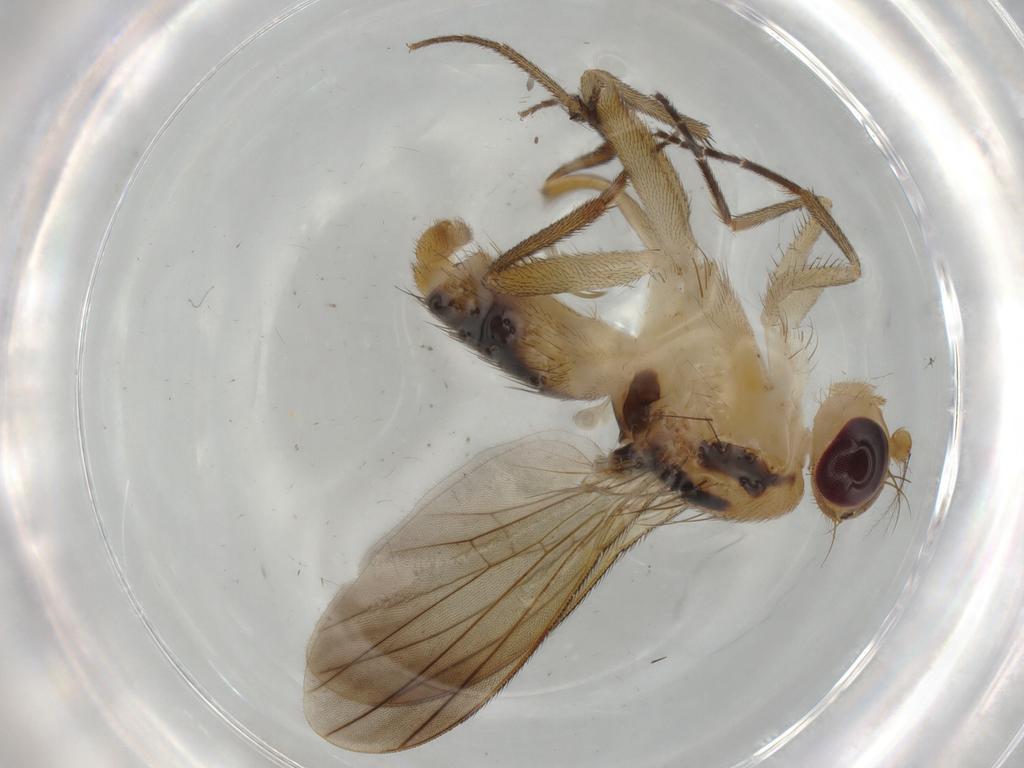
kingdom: Animalia
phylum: Arthropoda
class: Insecta
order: Diptera
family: Clusiidae
